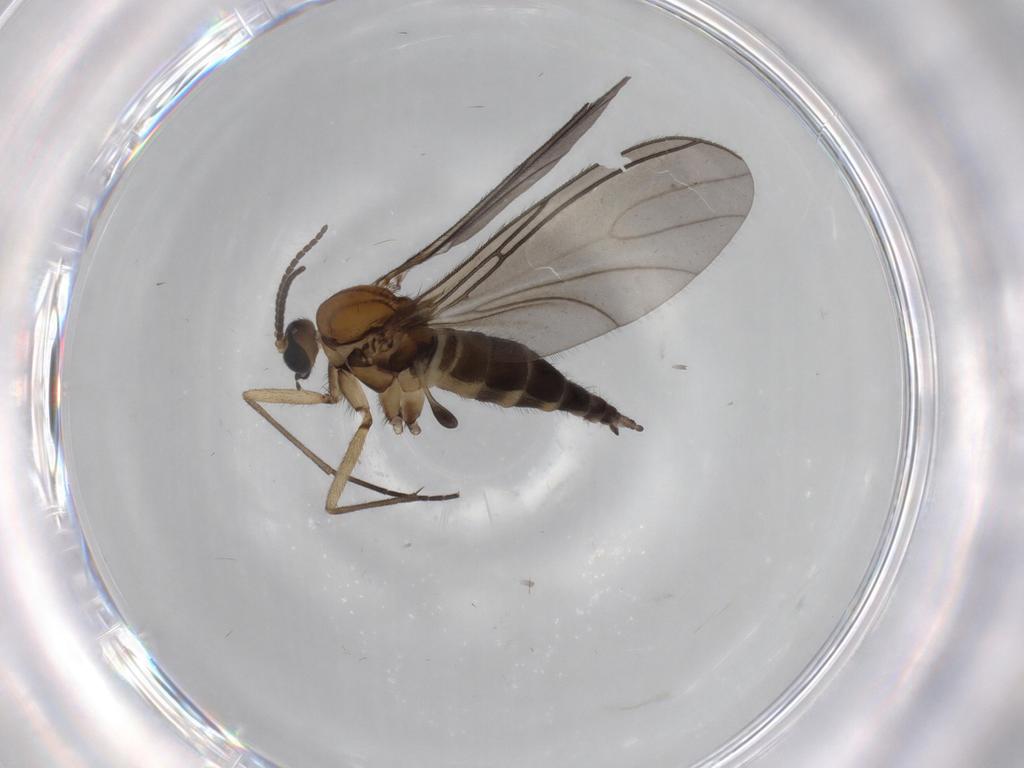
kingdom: Animalia
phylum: Arthropoda
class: Insecta
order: Diptera
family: Sciaridae
